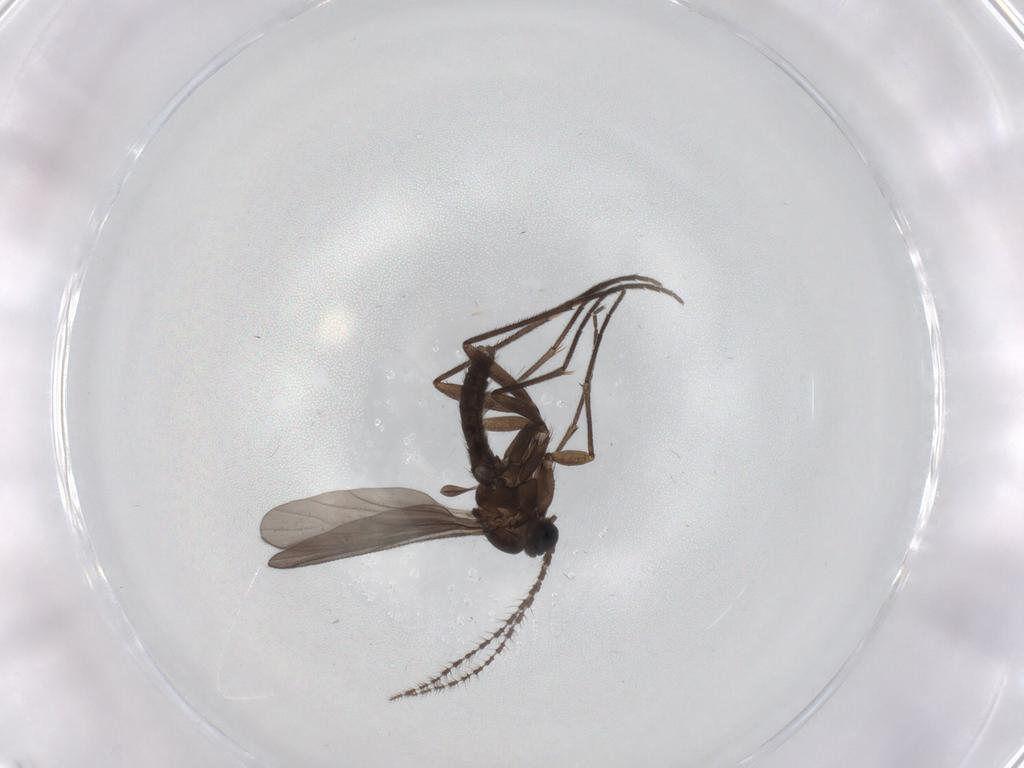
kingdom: Animalia
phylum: Arthropoda
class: Insecta
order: Diptera
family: Sciaridae
